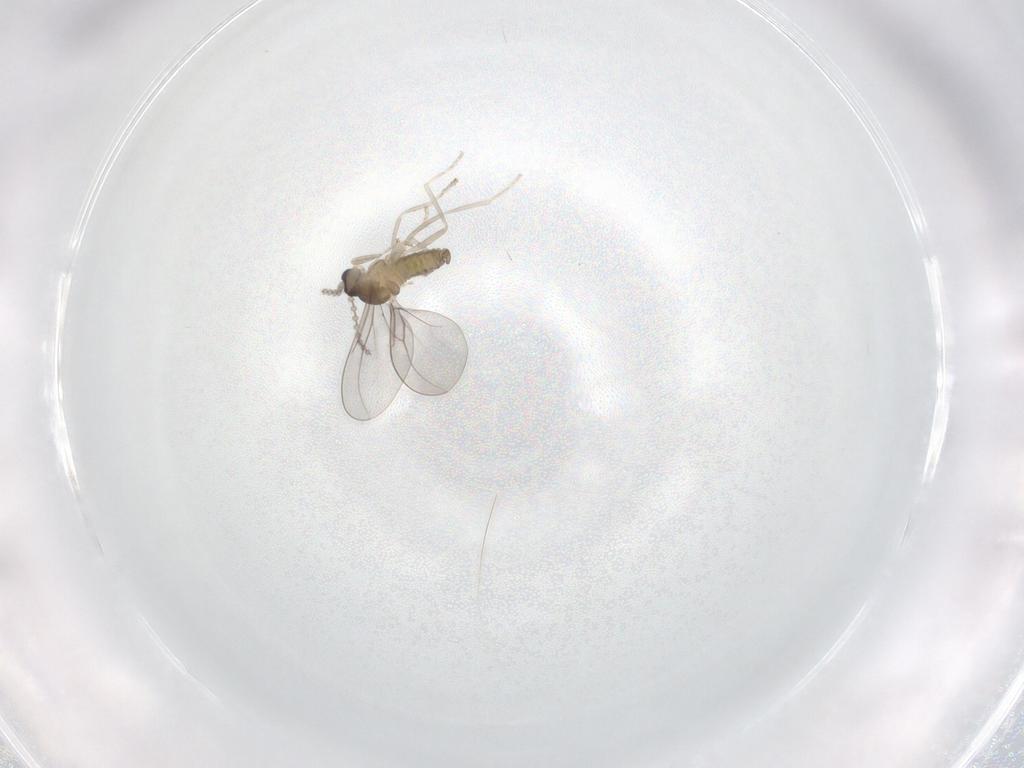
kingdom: Animalia
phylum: Arthropoda
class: Insecta
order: Diptera
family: Cecidomyiidae
